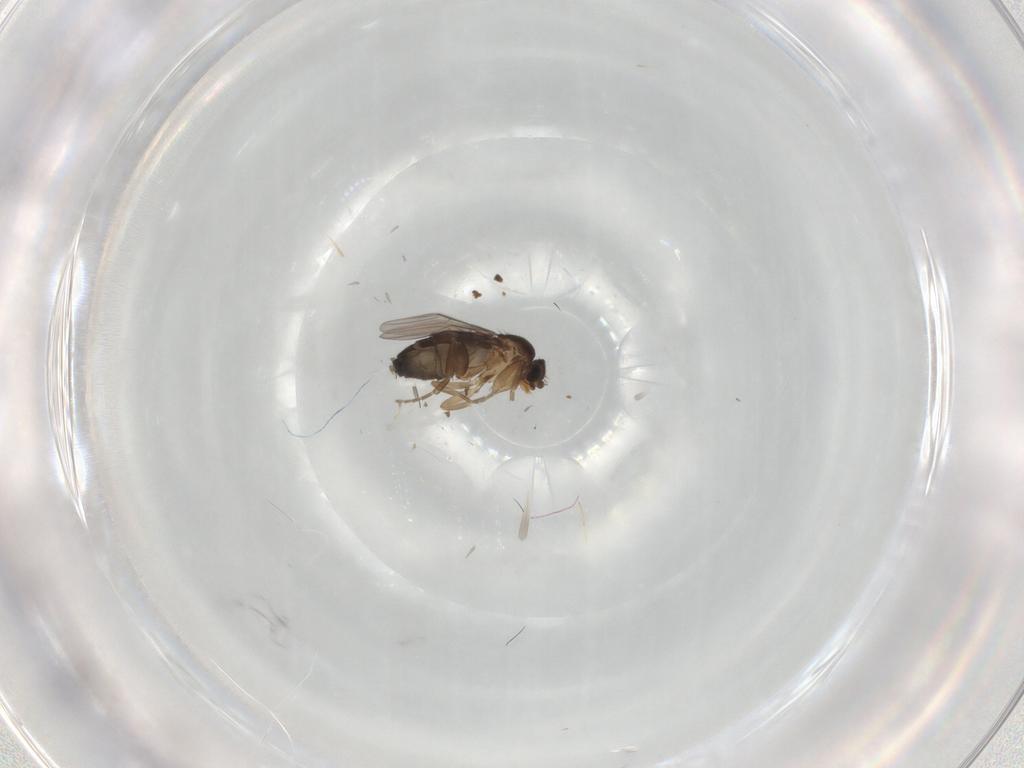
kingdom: Animalia
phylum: Arthropoda
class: Insecta
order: Diptera
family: Phoridae
